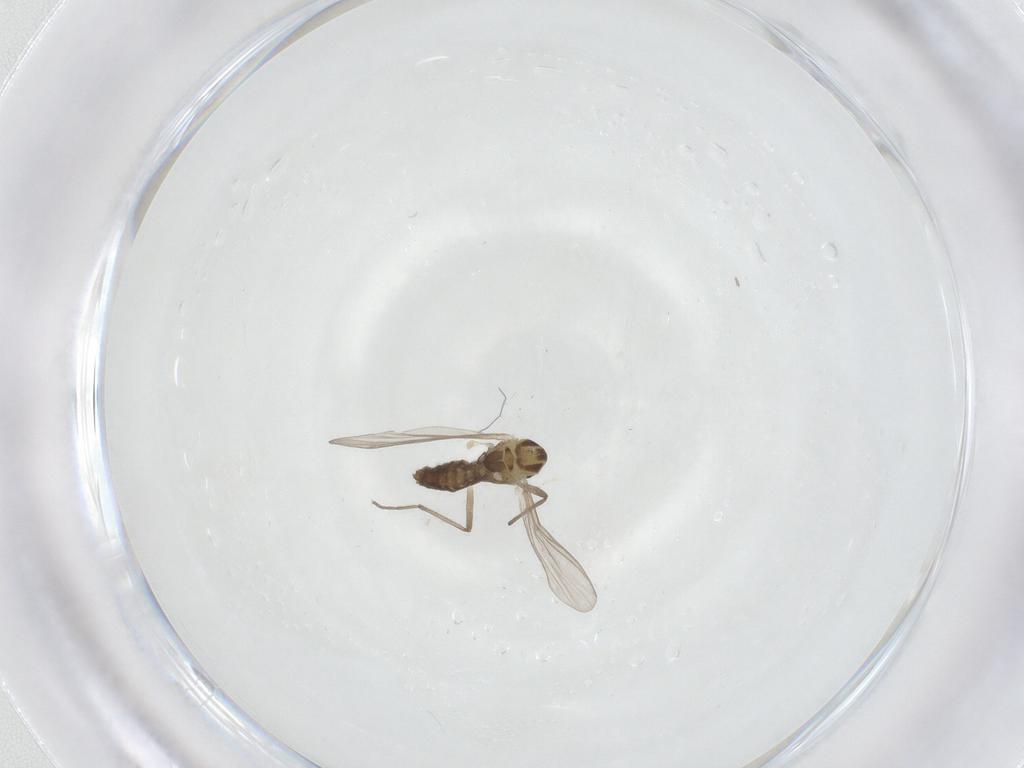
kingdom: Animalia
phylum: Arthropoda
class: Insecta
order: Diptera
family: Chironomidae
